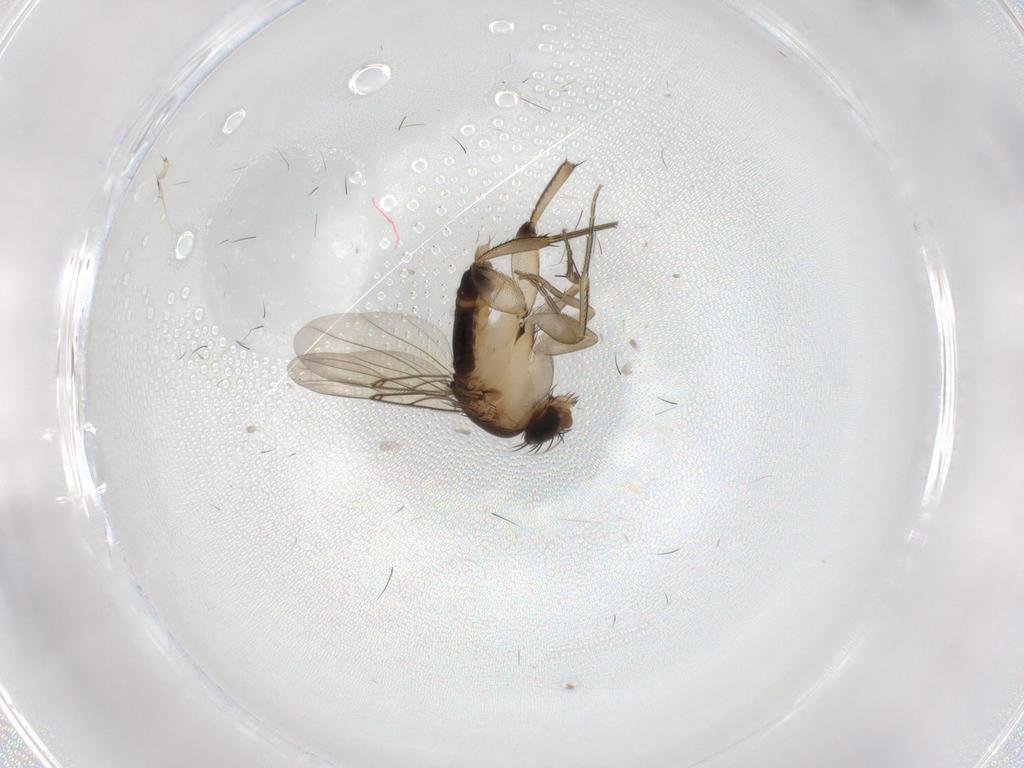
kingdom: Animalia
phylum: Arthropoda
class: Insecta
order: Diptera
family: Phoridae
